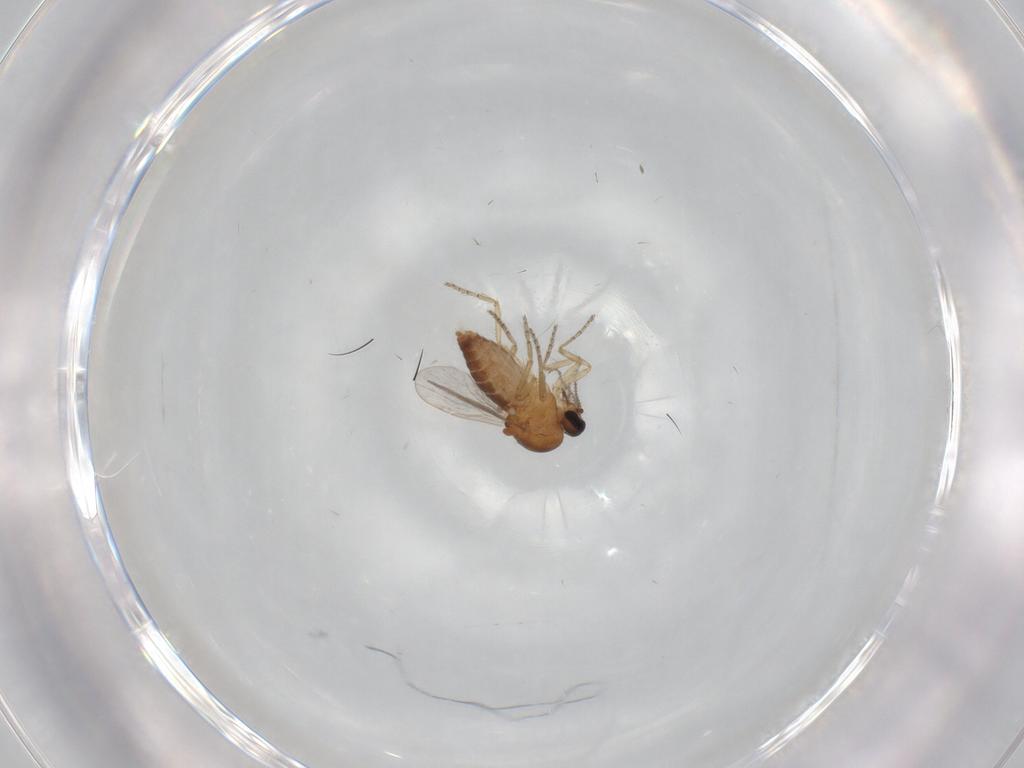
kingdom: Animalia
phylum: Arthropoda
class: Insecta
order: Diptera
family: Ceratopogonidae
